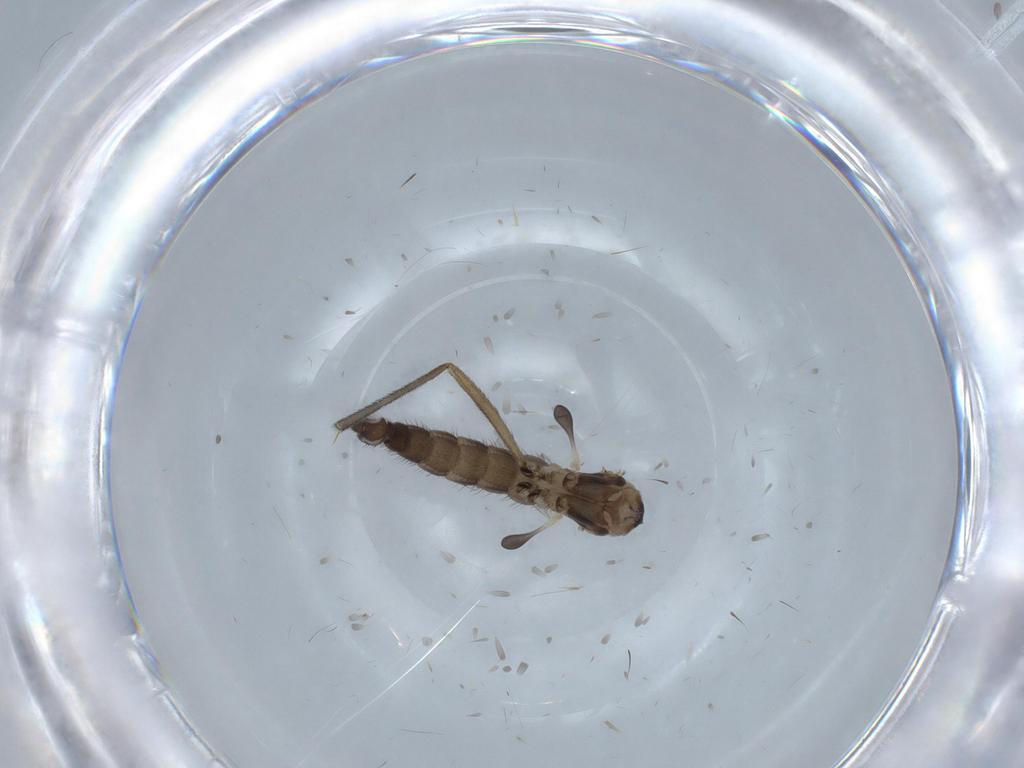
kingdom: Animalia
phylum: Arthropoda
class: Insecta
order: Diptera
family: Sciaridae
